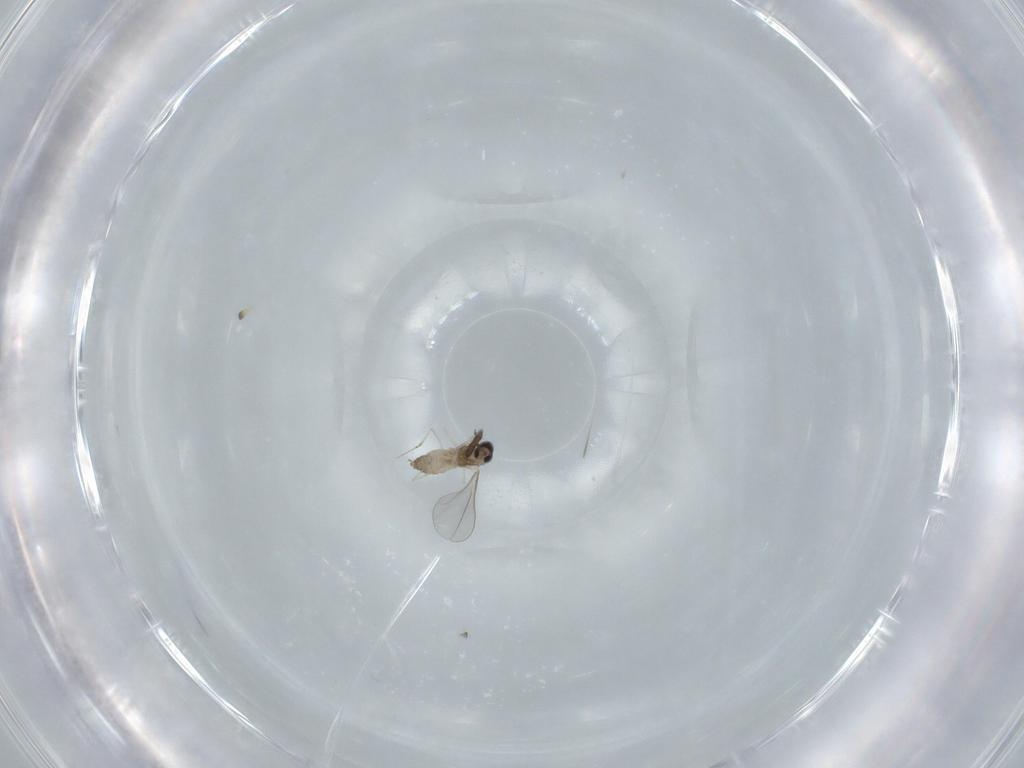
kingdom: Animalia
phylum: Arthropoda
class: Insecta
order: Diptera
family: Cecidomyiidae
